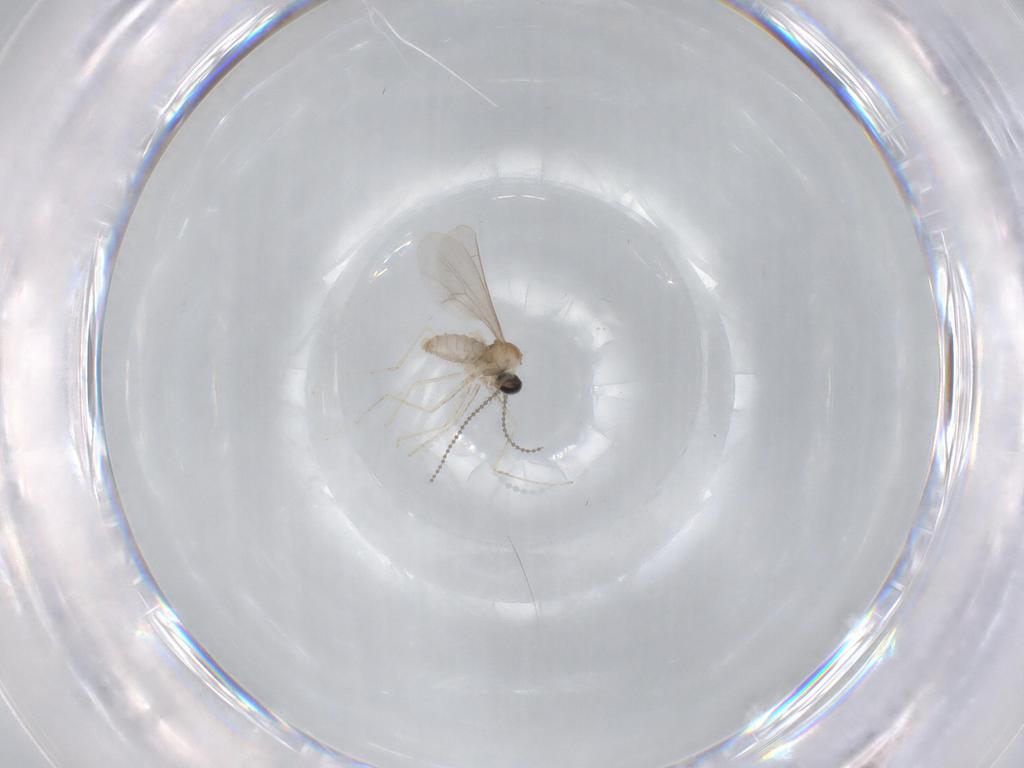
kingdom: Animalia
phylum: Arthropoda
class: Insecta
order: Diptera
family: Cecidomyiidae
